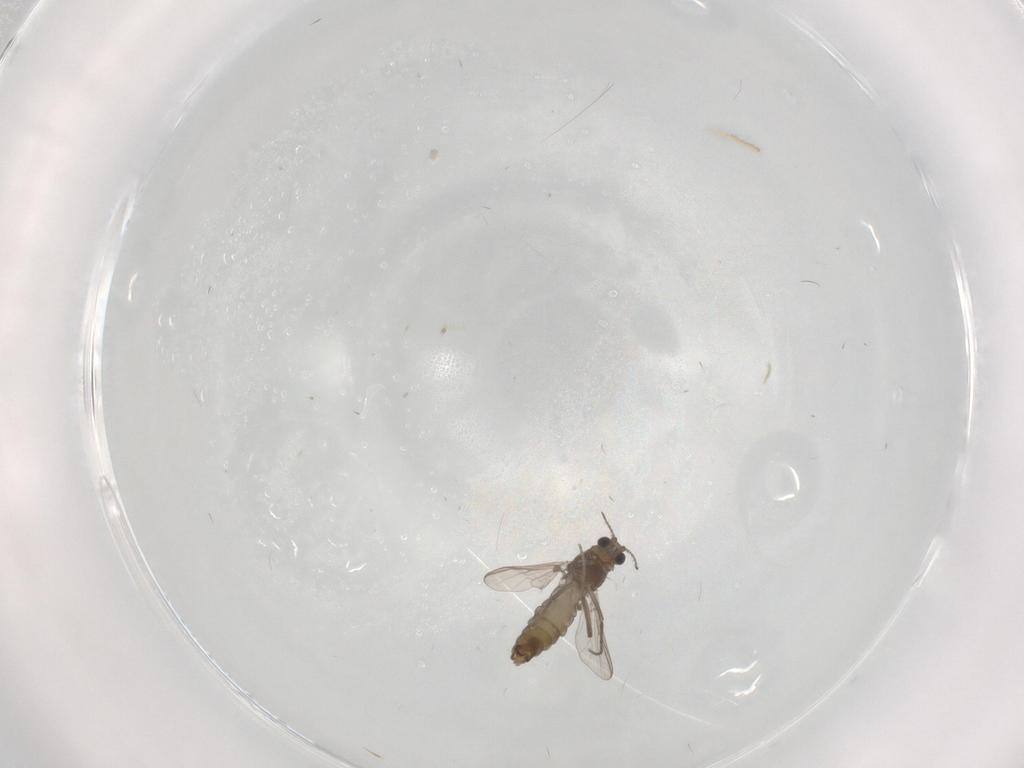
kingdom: Animalia
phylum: Arthropoda
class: Insecta
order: Diptera
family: Chironomidae
